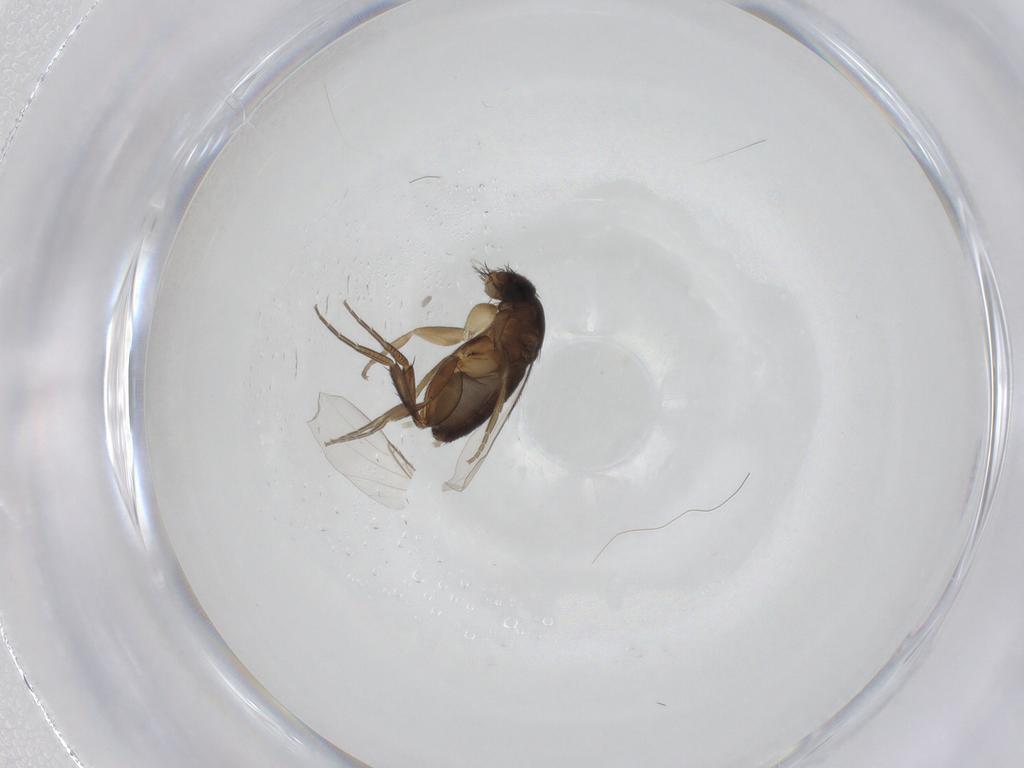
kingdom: Animalia
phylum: Arthropoda
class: Insecta
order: Diptera
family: Phoridae
